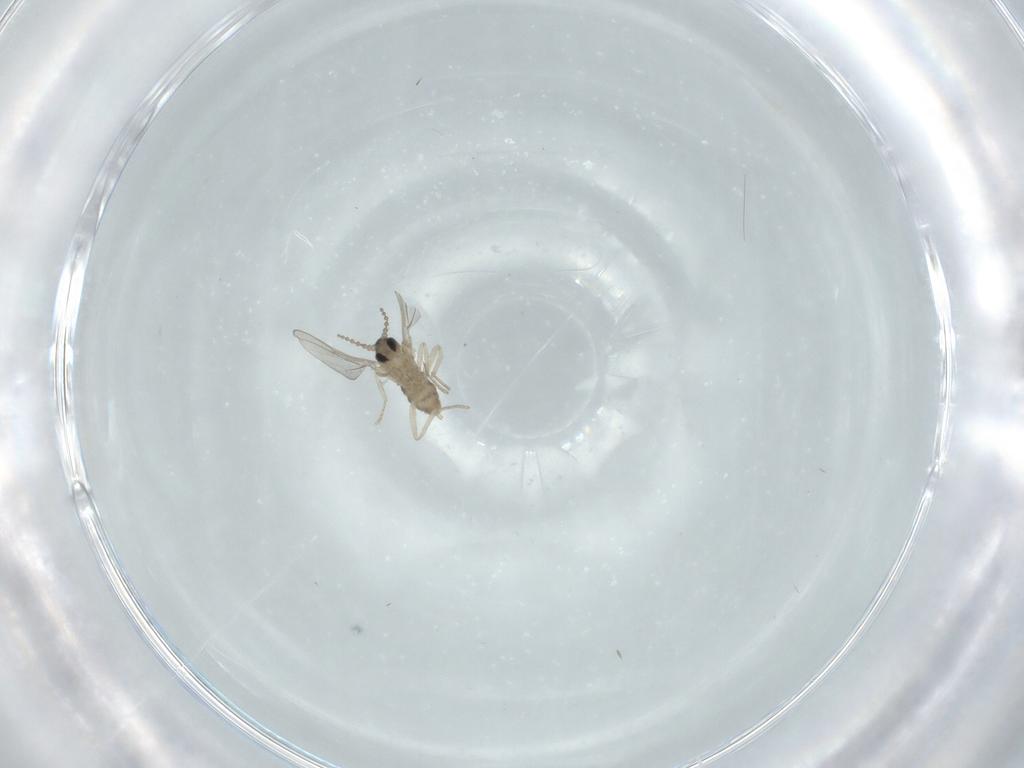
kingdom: Animalia
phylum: Arthropoda
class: Insecta
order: Diptera
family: Cecidomyiidae
